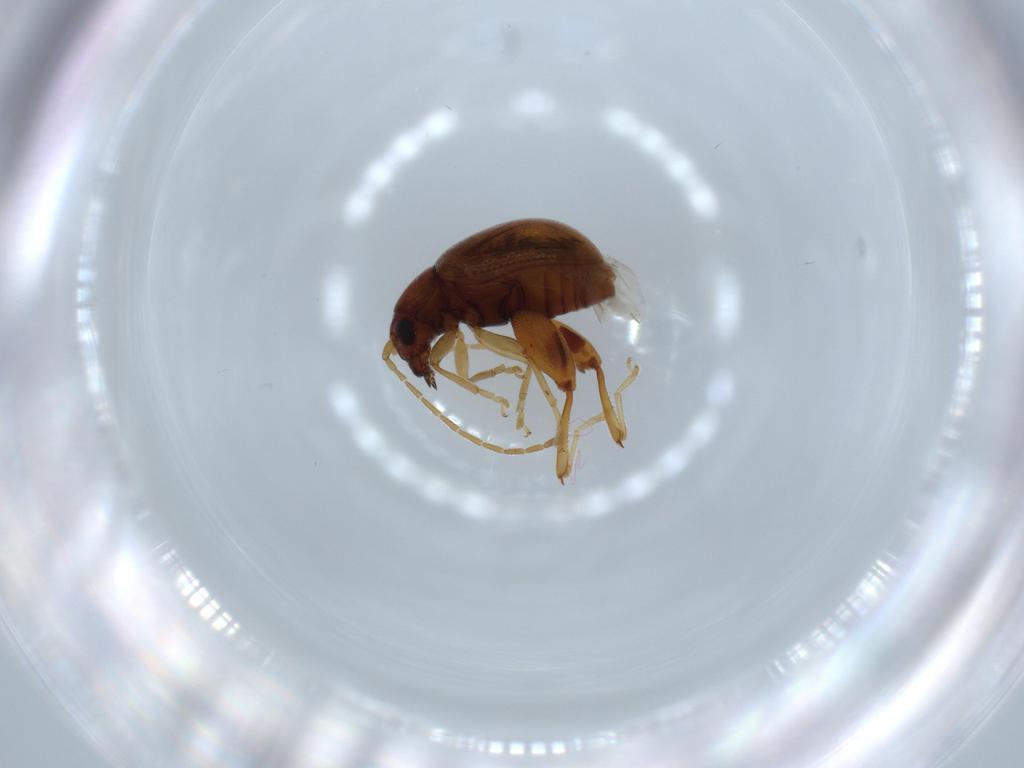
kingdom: Animalia
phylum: Arthropoda
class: Insecta
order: Coleoptera
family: Chrysomelidae
